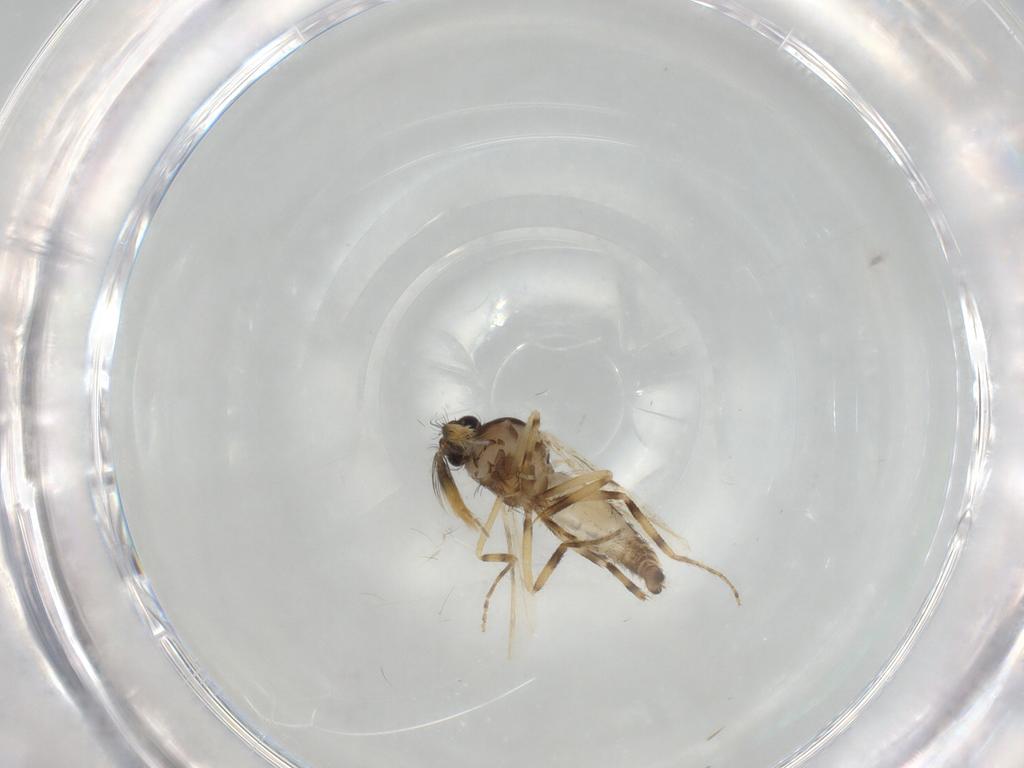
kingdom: Animalia
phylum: Arthropoda
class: Insecta
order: Diptera
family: Ceratopogonidae
